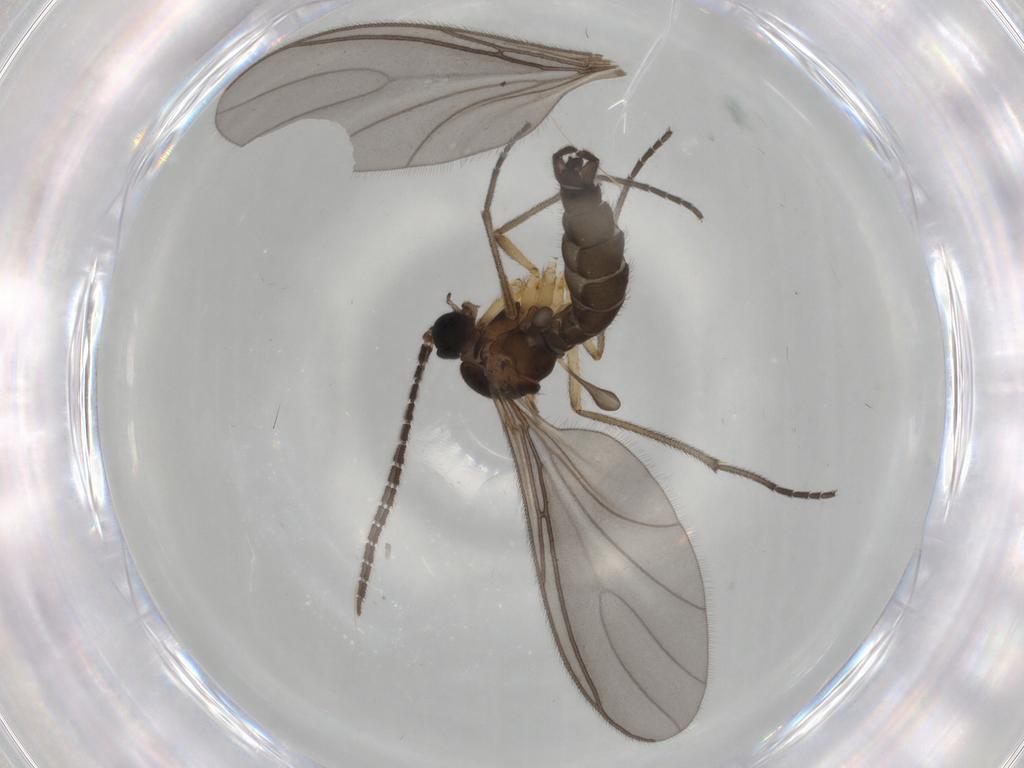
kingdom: Animalia
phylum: Arthropoda
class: Insecta
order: Diptera
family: Sciaridae
